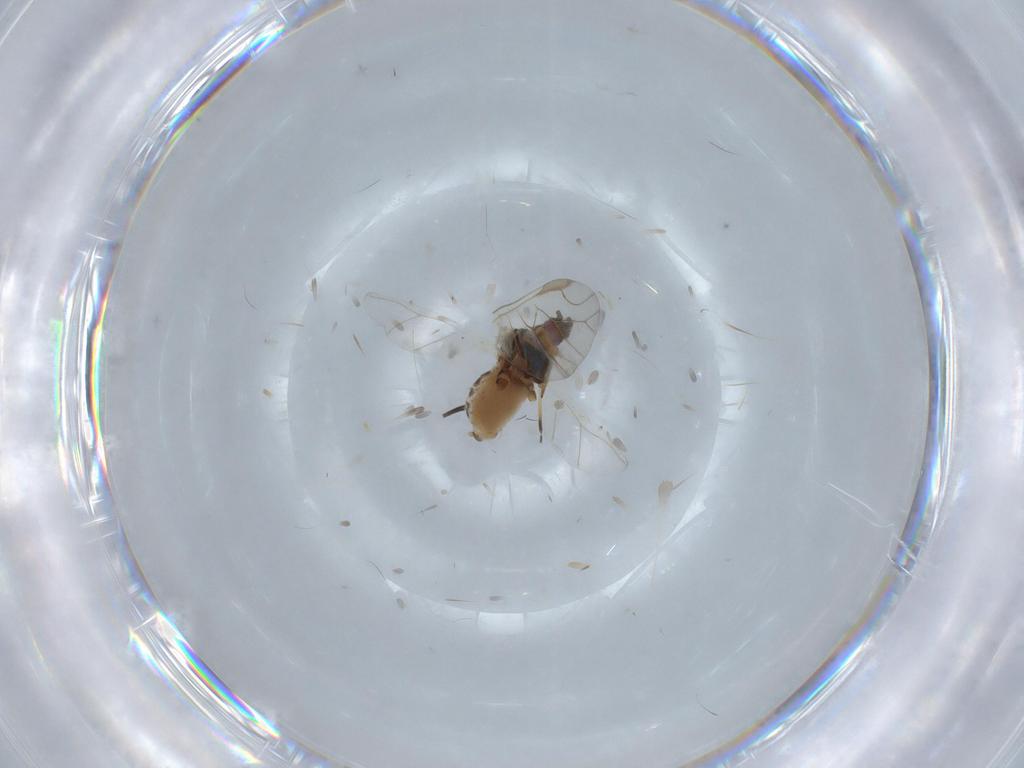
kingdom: Animalia
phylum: Arthropoda
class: Insecta
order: Hemiptera
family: Aphididae
